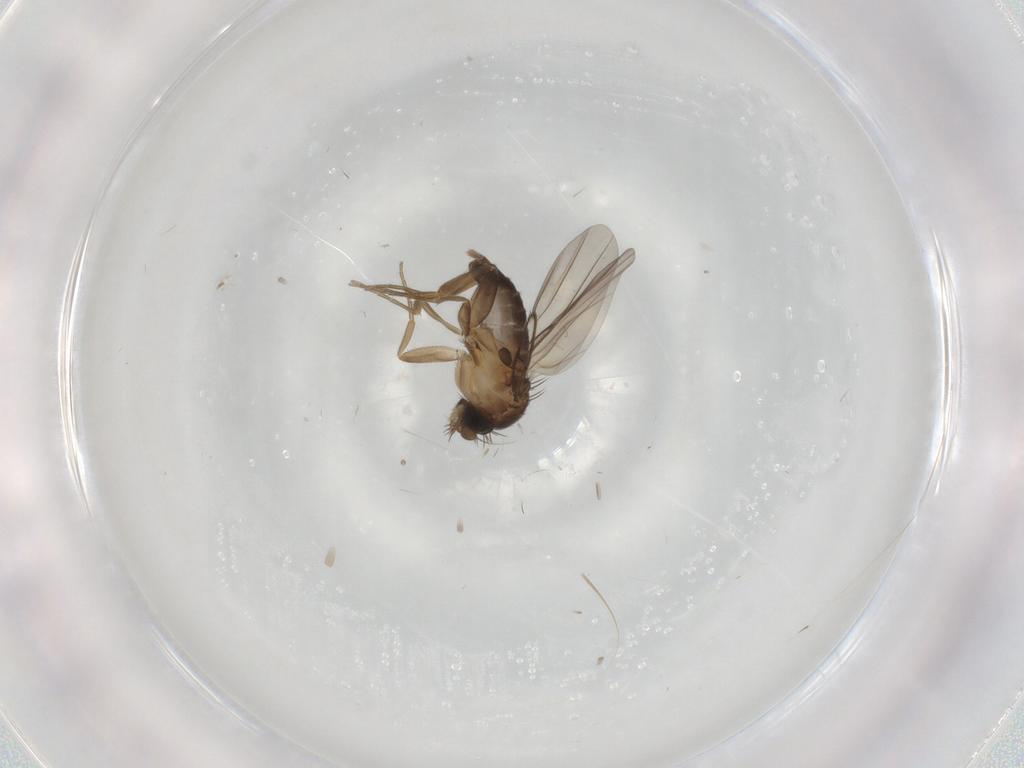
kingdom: Animalia
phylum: Arthropoda
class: Insecta
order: Diptera
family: Phoridae
